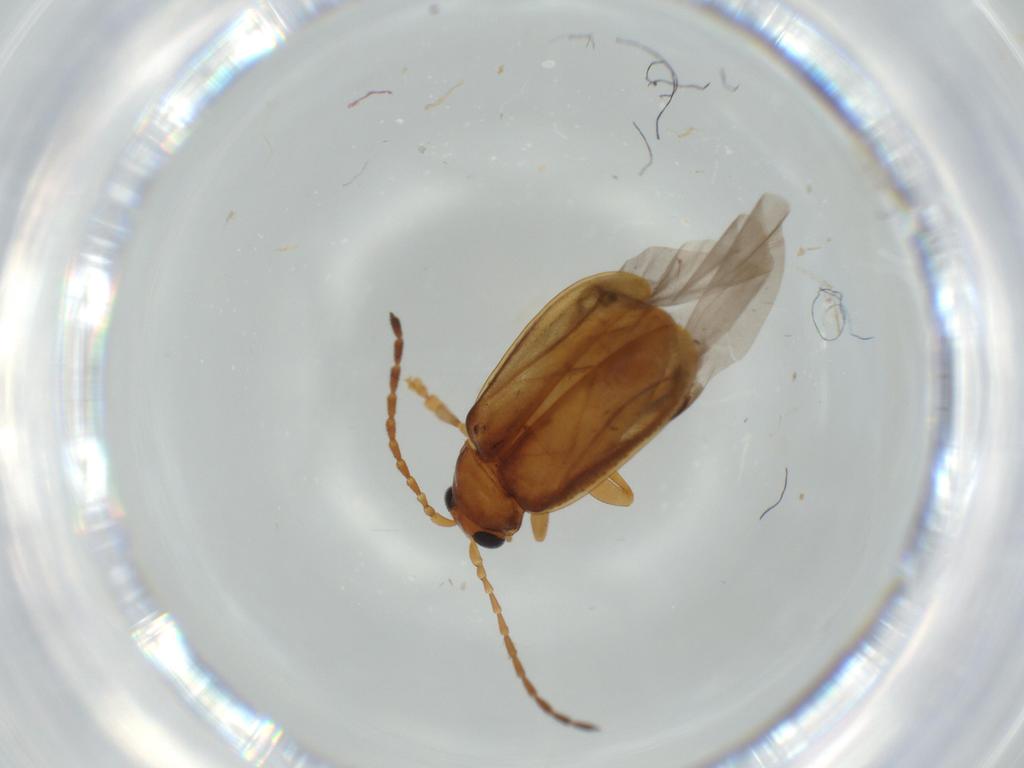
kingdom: Animalia
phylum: Arthropoda
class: Insecta
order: Coleoptera
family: Chrysomelidae
